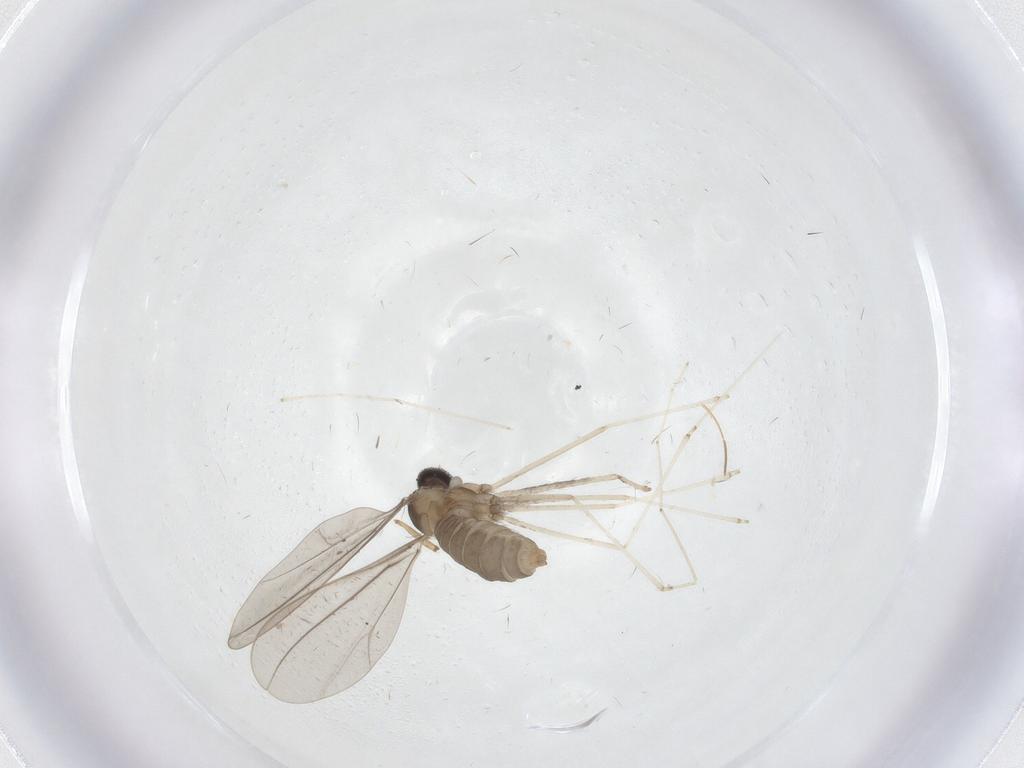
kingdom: Animalia
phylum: Arthropoda
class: Insecta
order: Diptera
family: Cecidomyiidae
